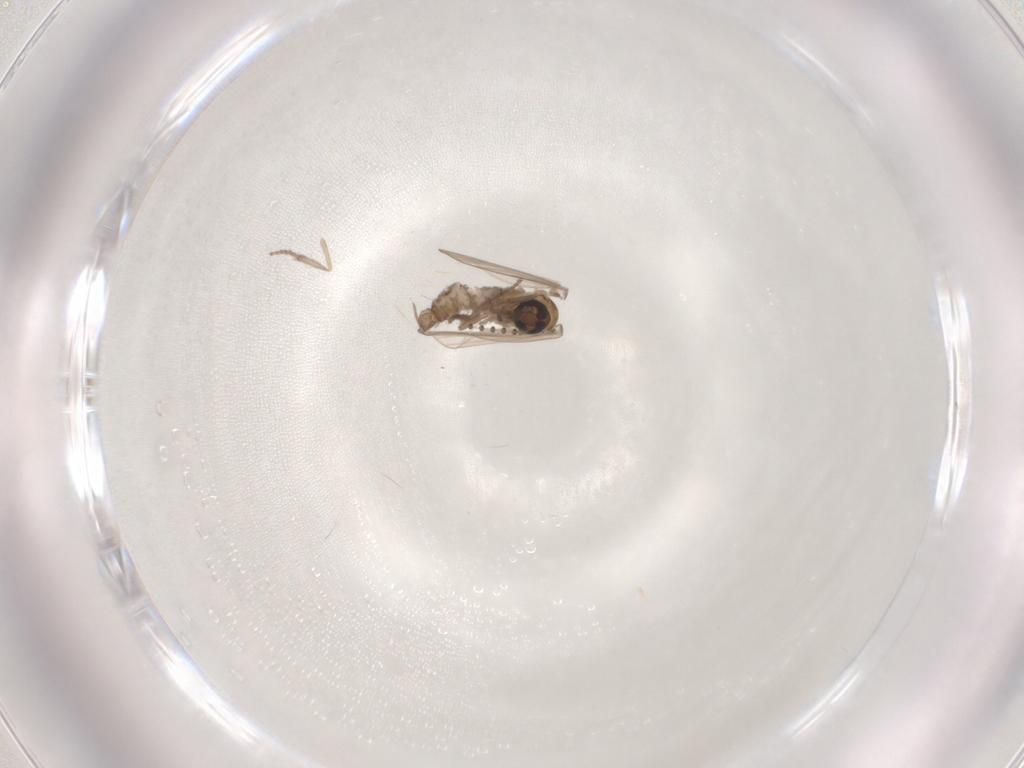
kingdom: Animalia
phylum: Arthropoda
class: Insecta
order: Diptera
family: Psychodidae
